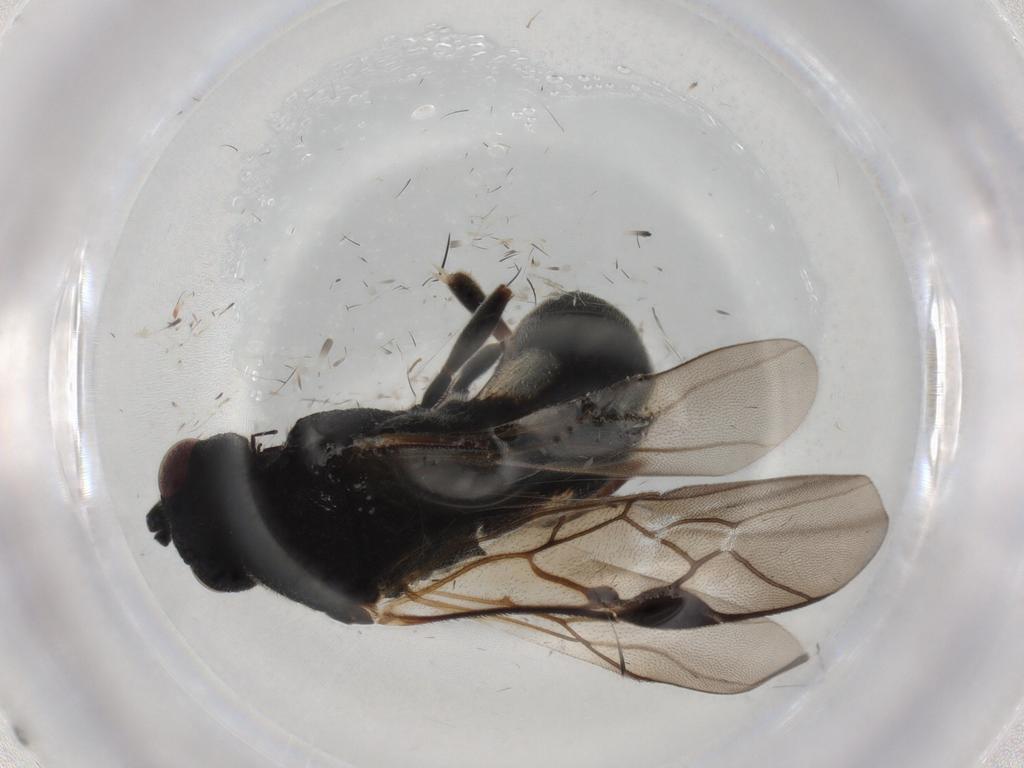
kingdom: Animalia
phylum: Arthropoda
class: Insecta
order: Hymenoptera
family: Braconidae
